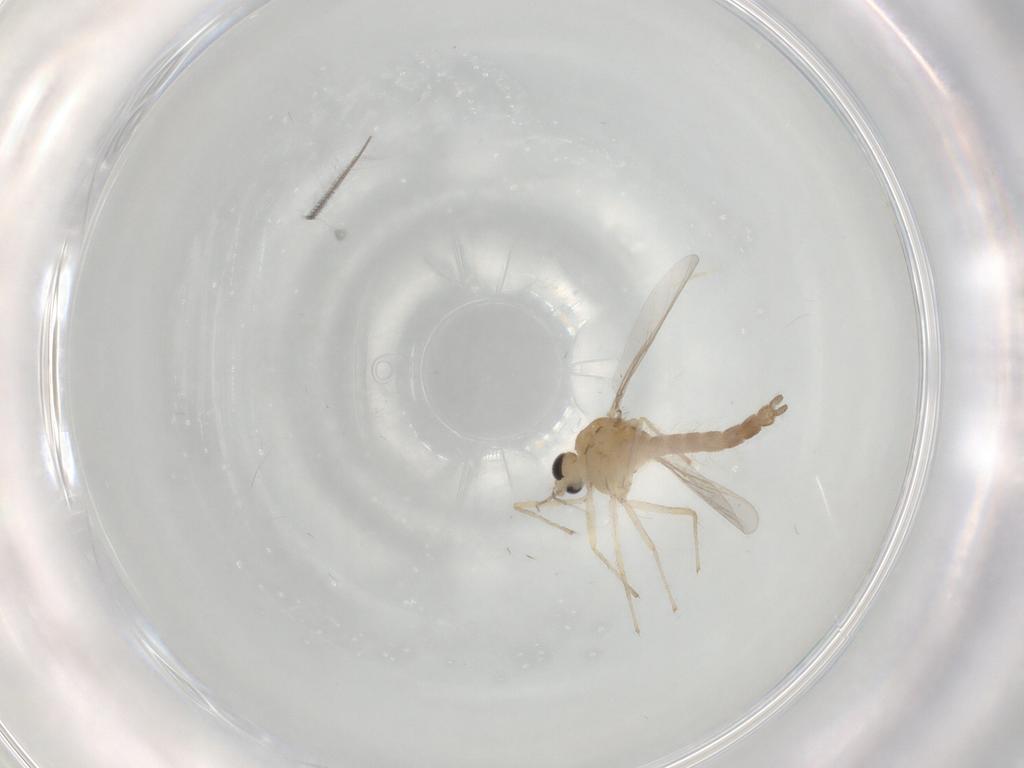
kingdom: Animalia
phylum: Arthropoda
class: Insecta
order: Diptera
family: Chironomidae
